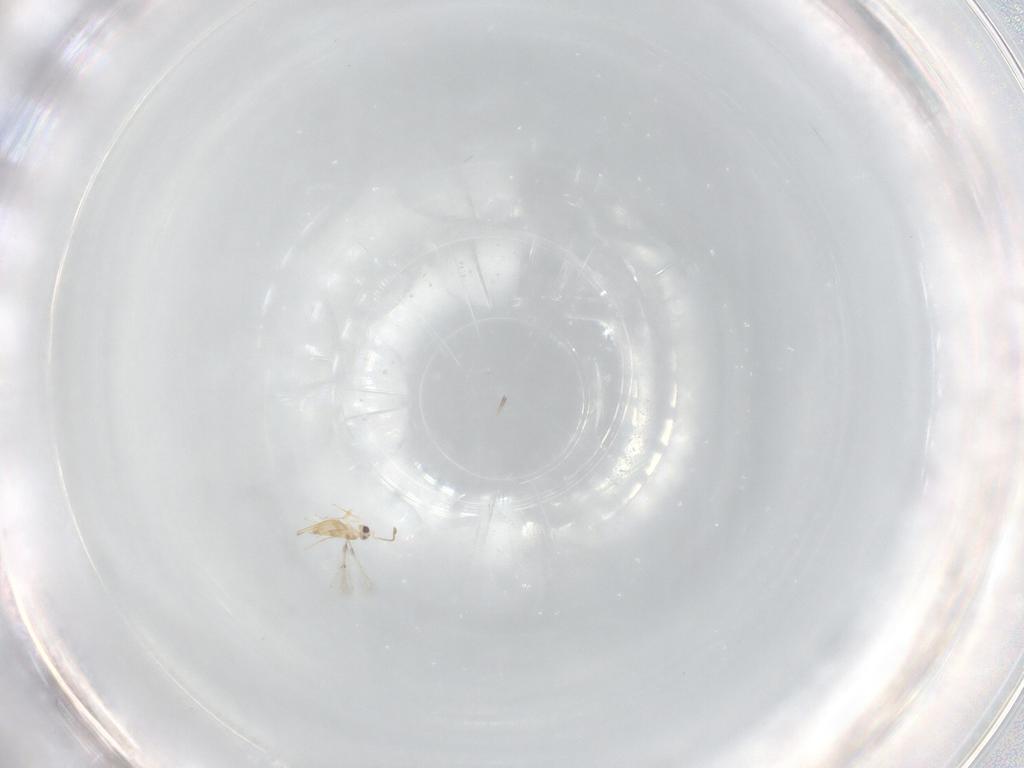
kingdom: Animalia
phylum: Arthropoda
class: Insecta
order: Hymenoptera
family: Mymaridae
